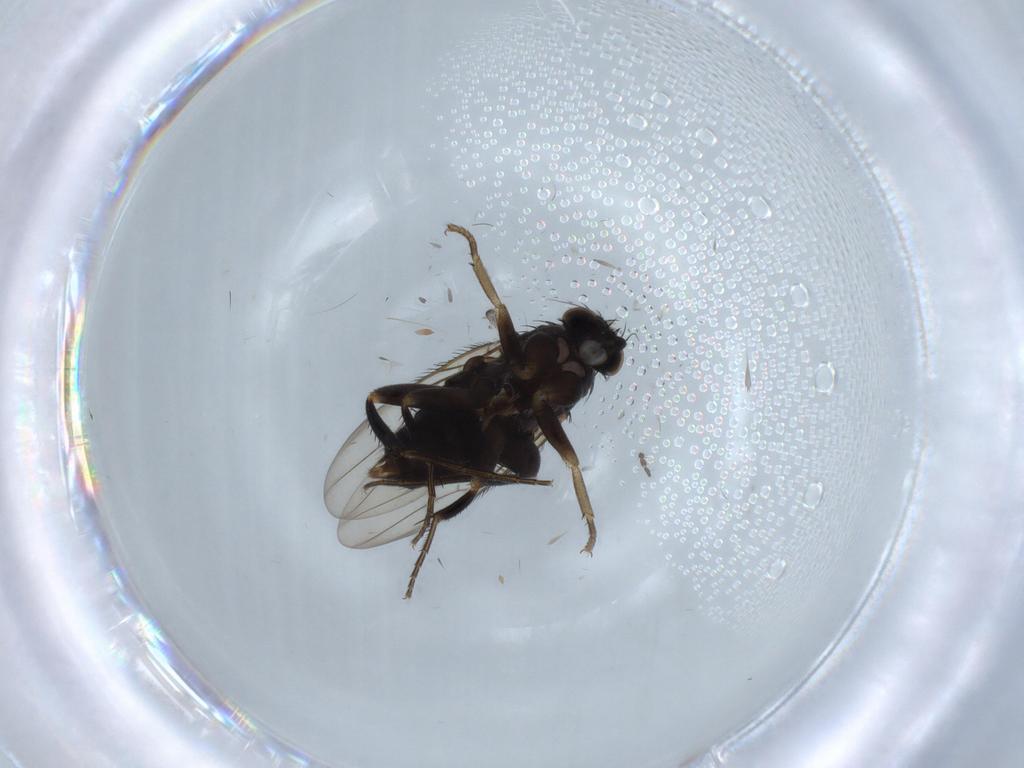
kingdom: Animalia
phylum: Arthropoda
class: Insecta
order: Diptera
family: Limoniidae
